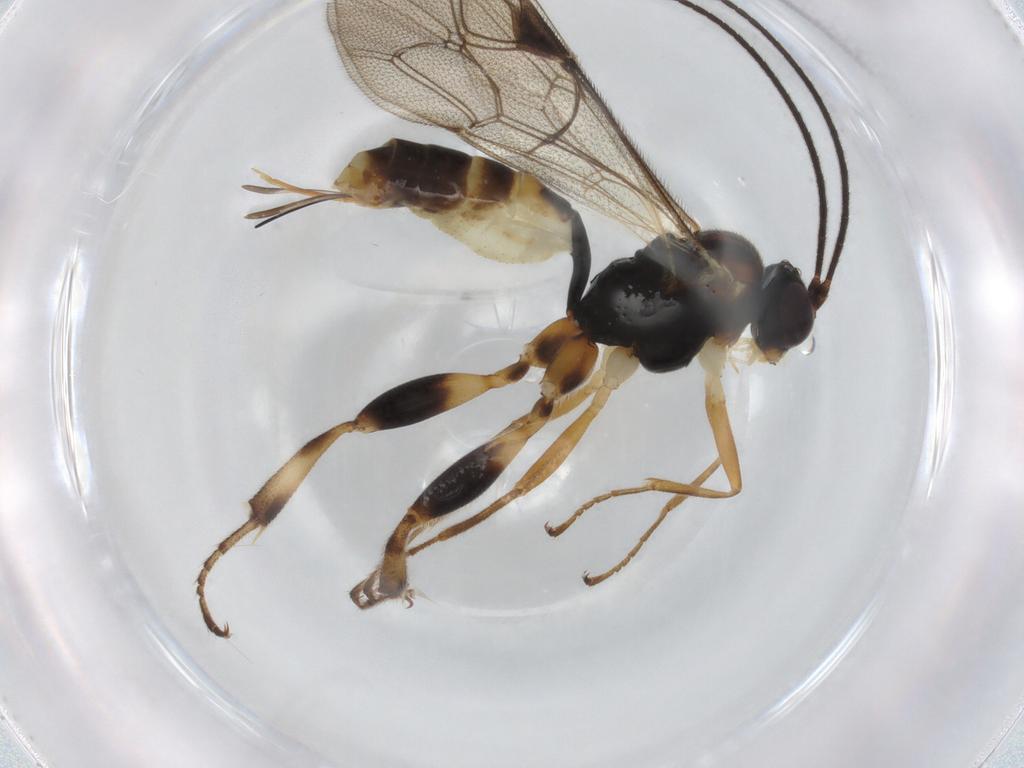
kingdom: Animalia
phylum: Arthropoda
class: Insecta
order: Hymenoptera
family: Ichneumonidae
